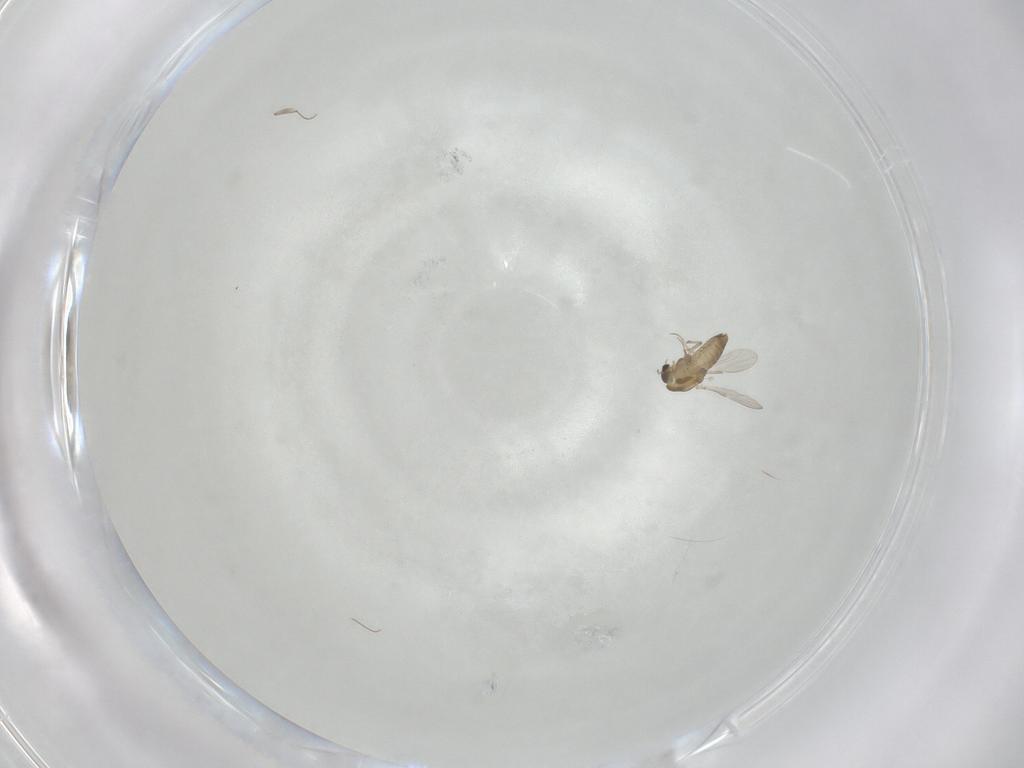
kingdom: Animalia
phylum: Arthropoda
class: Insecta
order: Diptera
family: Chironomidae
